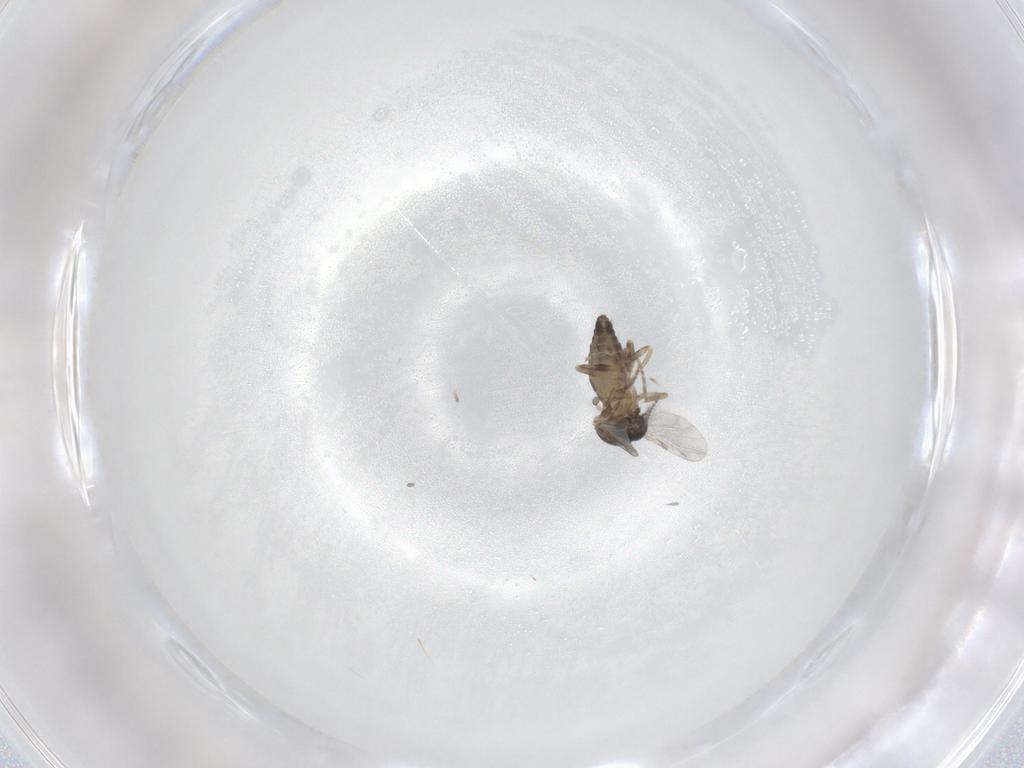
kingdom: Animalia
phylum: Arthropoda
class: Insecta
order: Diptera
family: Ceratopogonidae
